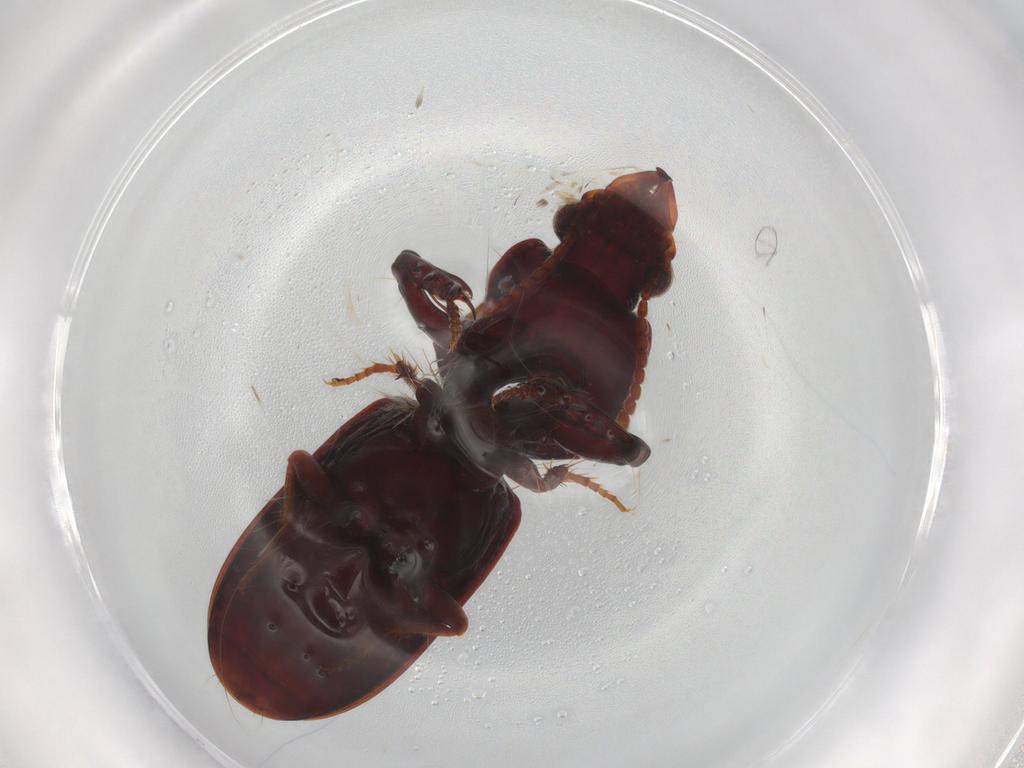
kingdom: Animalia
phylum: Arthropoda
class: Insecta
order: Coleoptera
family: Carabidae
